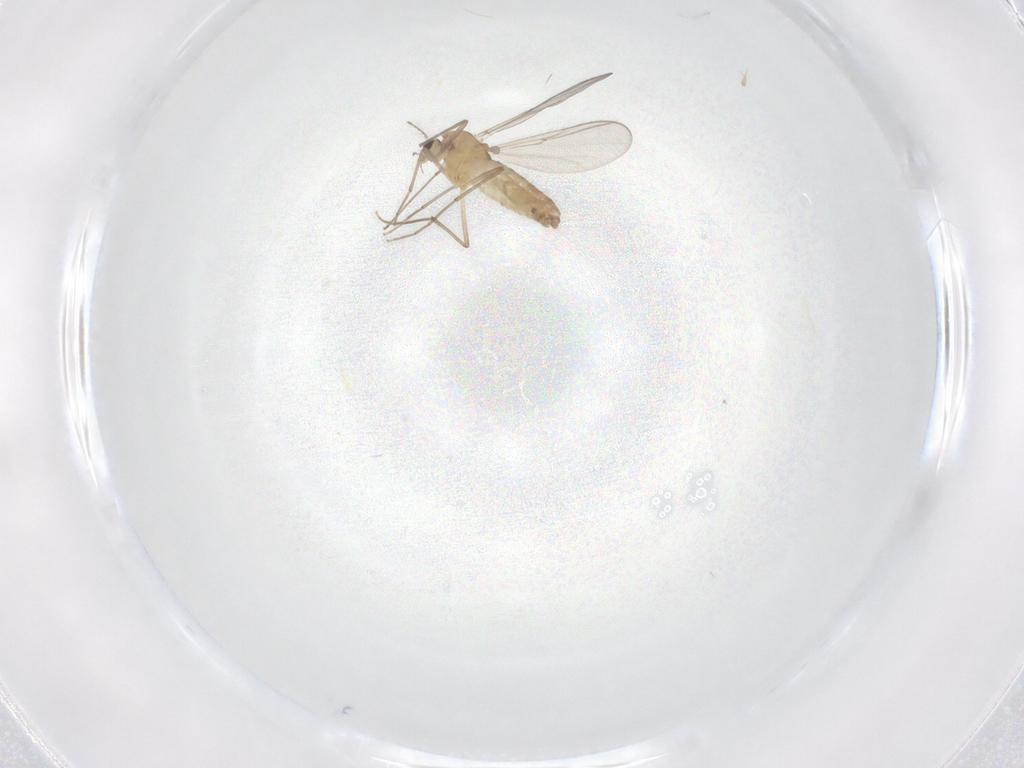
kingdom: Animalia
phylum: Arthropoda
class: Insecta
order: Diptera
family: Chironomidae
